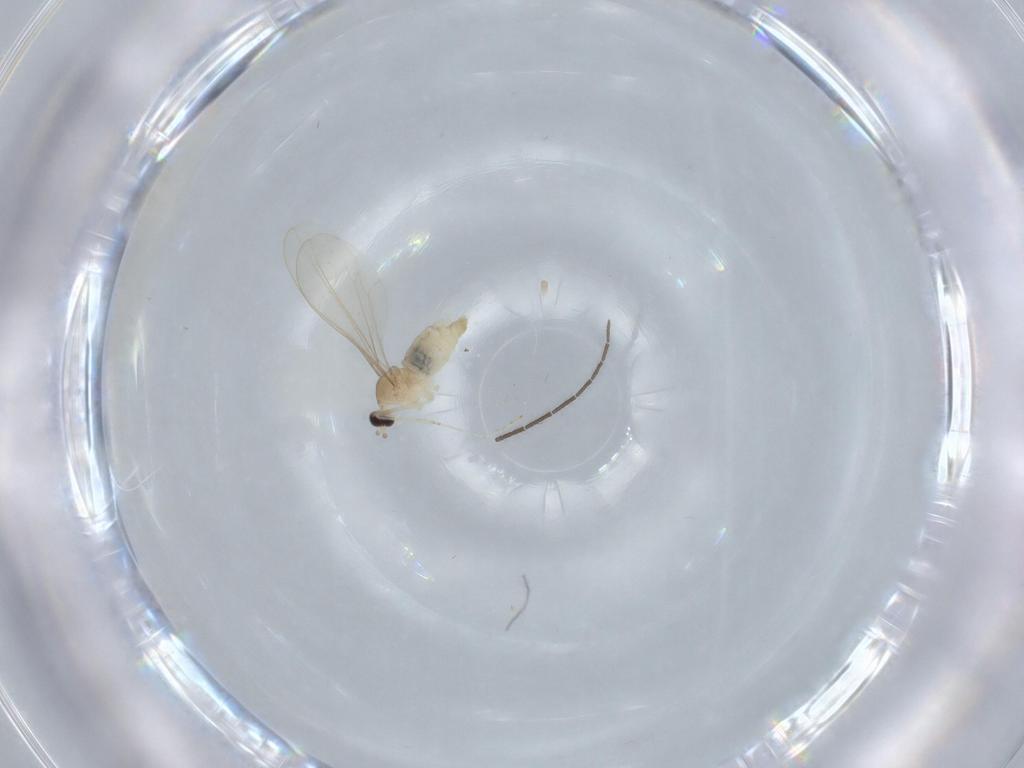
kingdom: Animalia
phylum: Arthropoda
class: Insecta
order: Diptera
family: Cecidomyiidae
